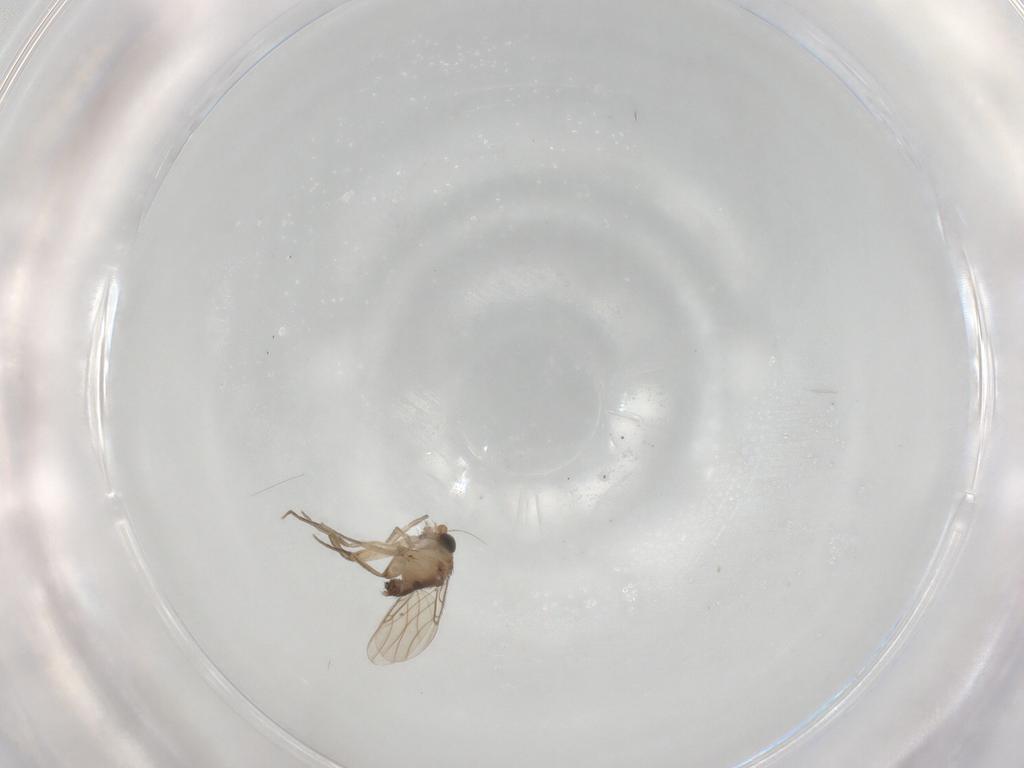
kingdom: Animalia
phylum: Arthropoda
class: Insecta
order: Diptera
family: Phoridae
